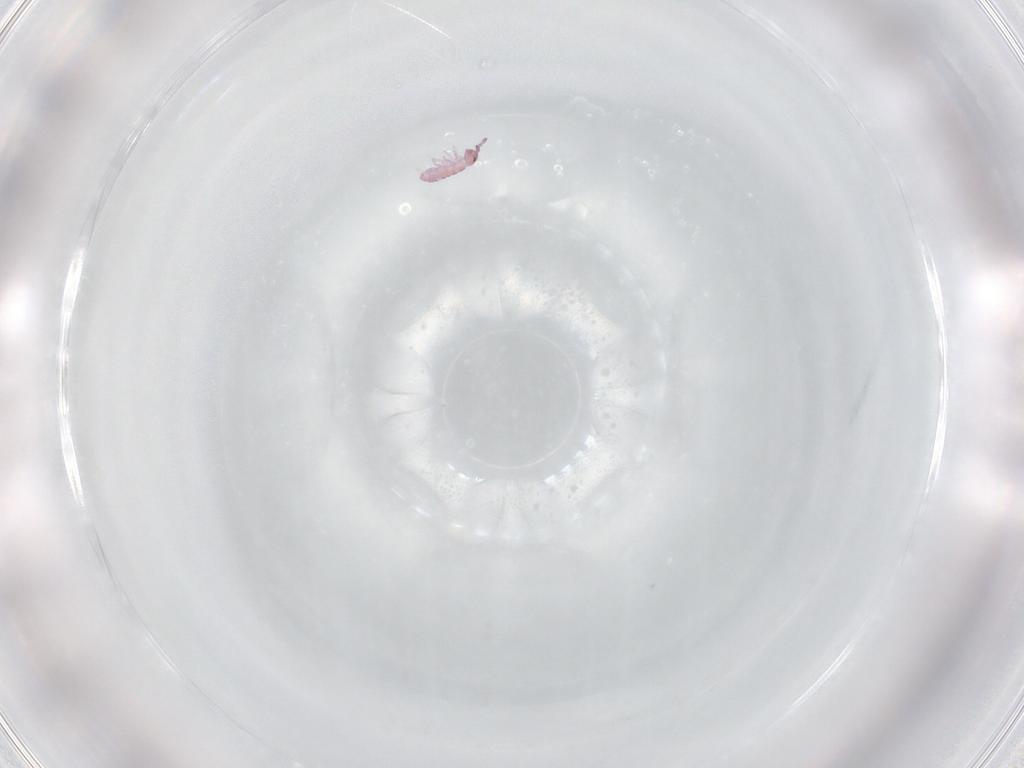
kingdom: Animalia
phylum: Arthropoda
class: Collembola
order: Entomobryomorpha
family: Isotomidae
